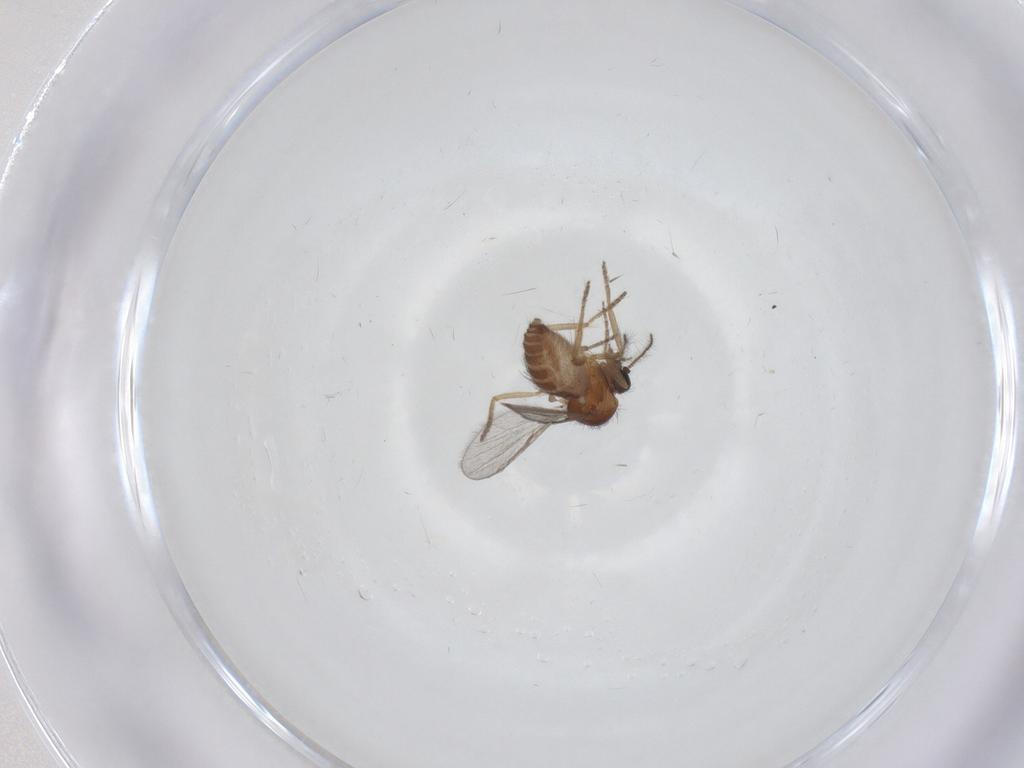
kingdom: Animalia
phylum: Arthropoda
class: Insecta
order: Diptera
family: Ceratopogonidae
